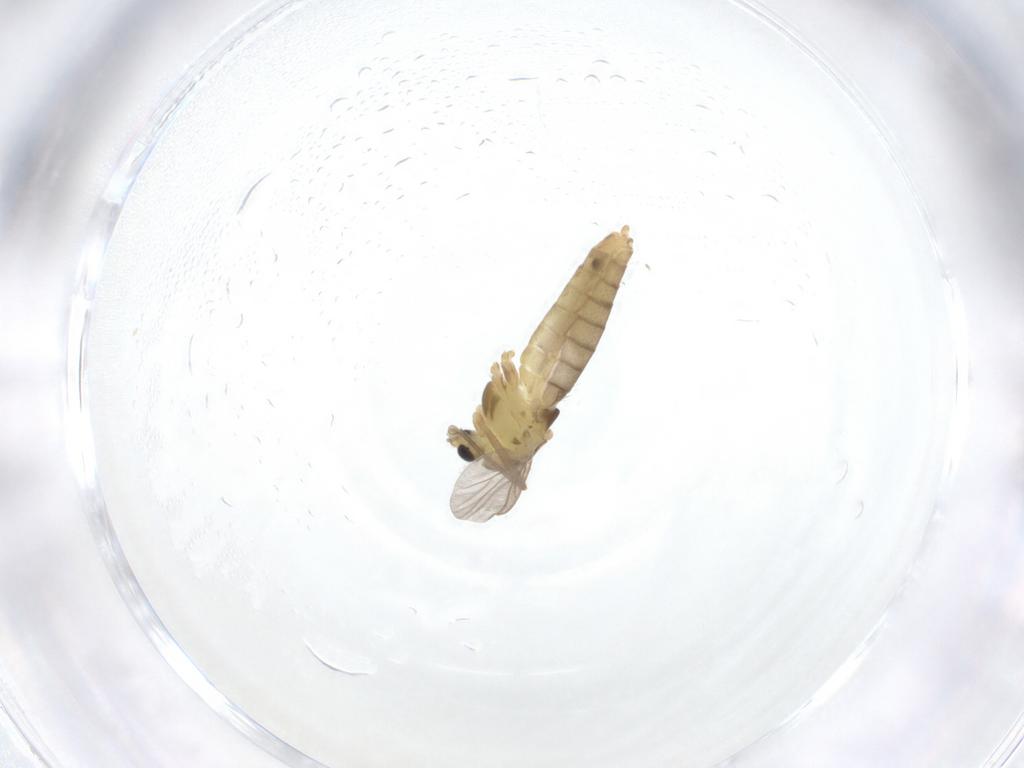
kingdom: Animalia
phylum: Arthropoda
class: Insecta
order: Diptera
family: Chironomidae
